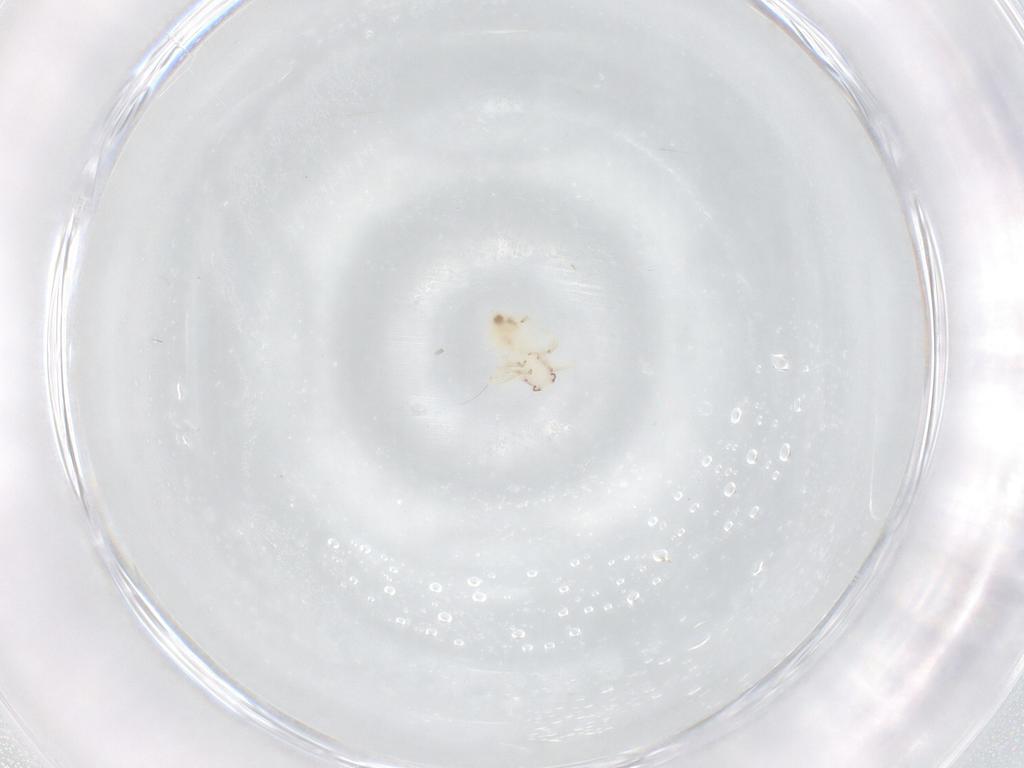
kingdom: Animalia
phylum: Arthropoda
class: Insecta
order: Psocodea
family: Lepidopsocidae
